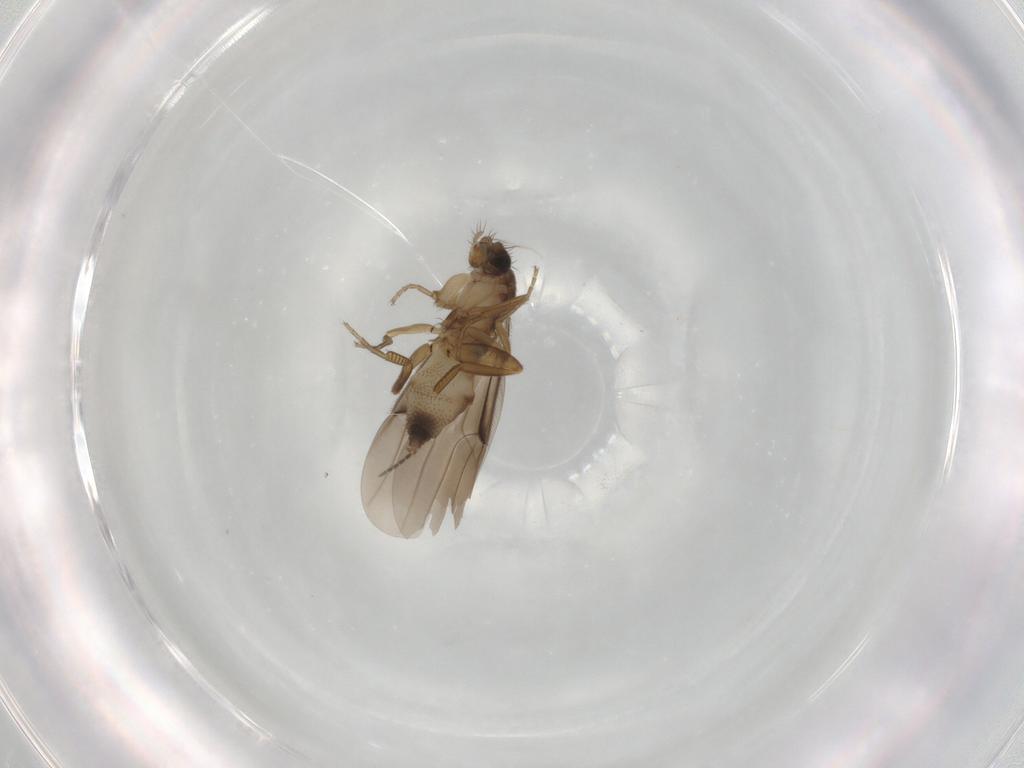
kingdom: Animalia
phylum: Arthropoda
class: Insecta
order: Diptera
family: Phoridae
